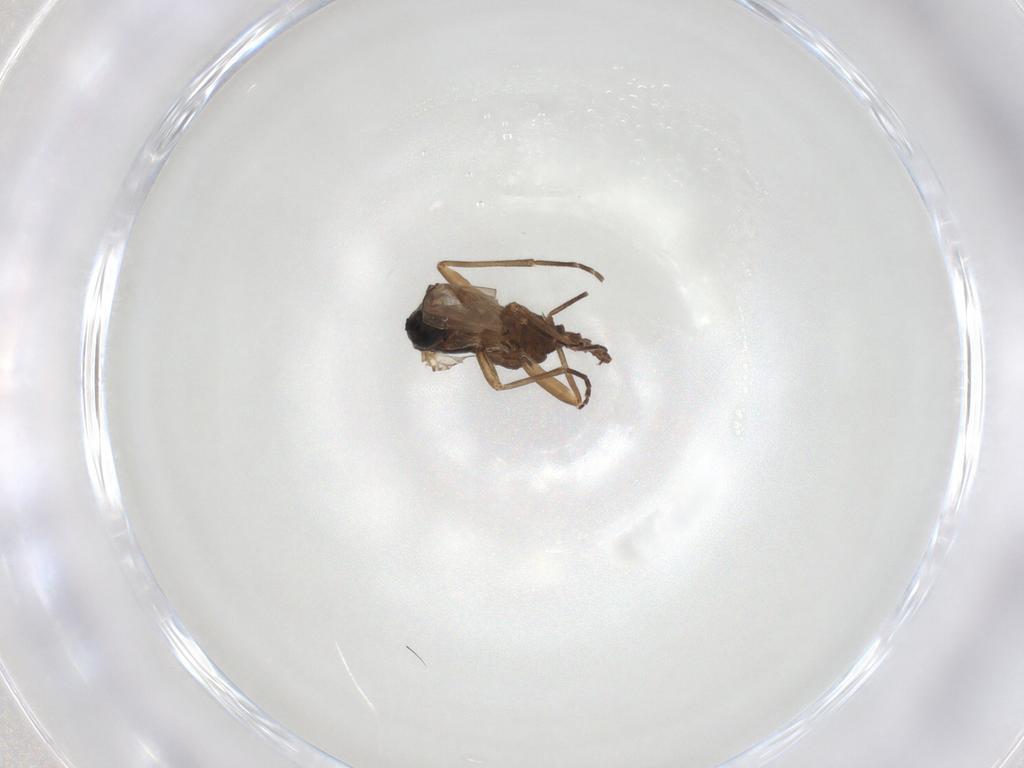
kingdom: Animalia
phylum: Arthropoda
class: Insecta
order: Diptera
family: Sciaridae
